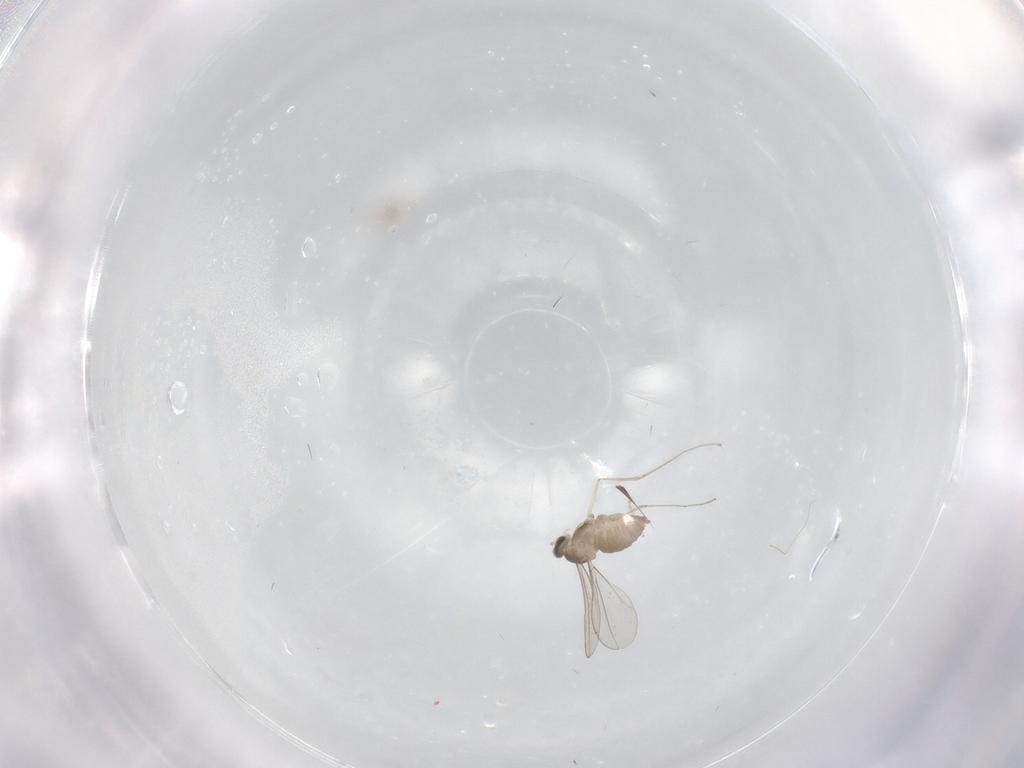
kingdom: Animalia
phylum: Arthropoda
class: Insecta
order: Diptera
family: Cecidomyiidae
